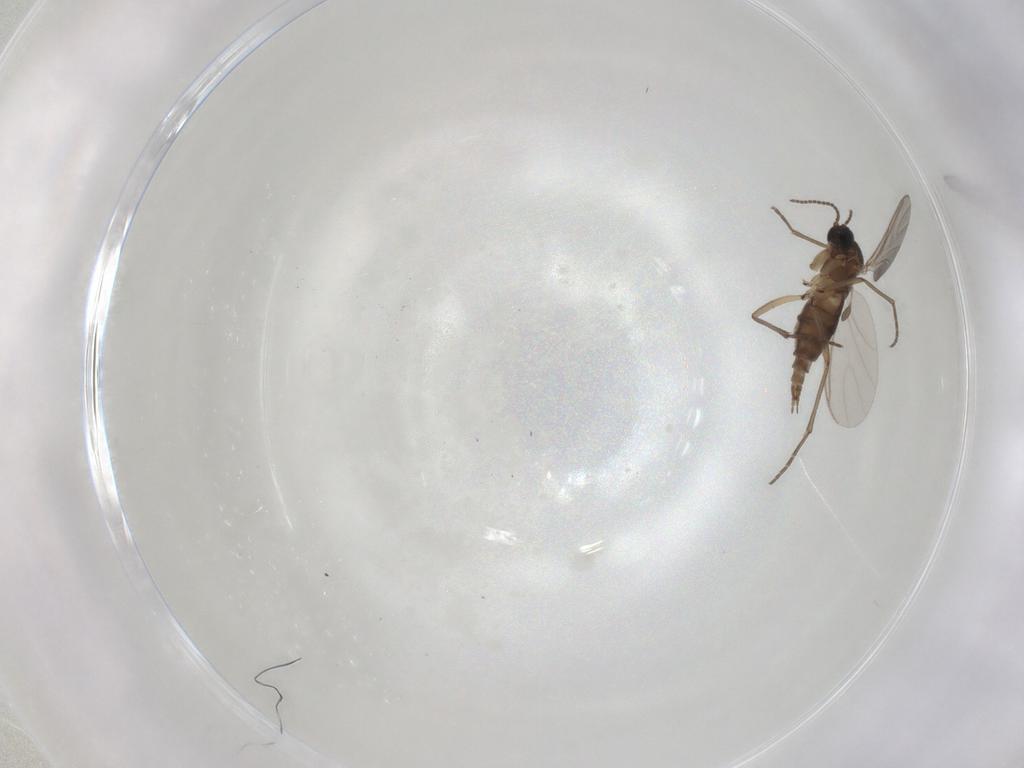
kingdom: Animalia
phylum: Arthropoda
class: Insecta
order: Diptera
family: Sciaridae
